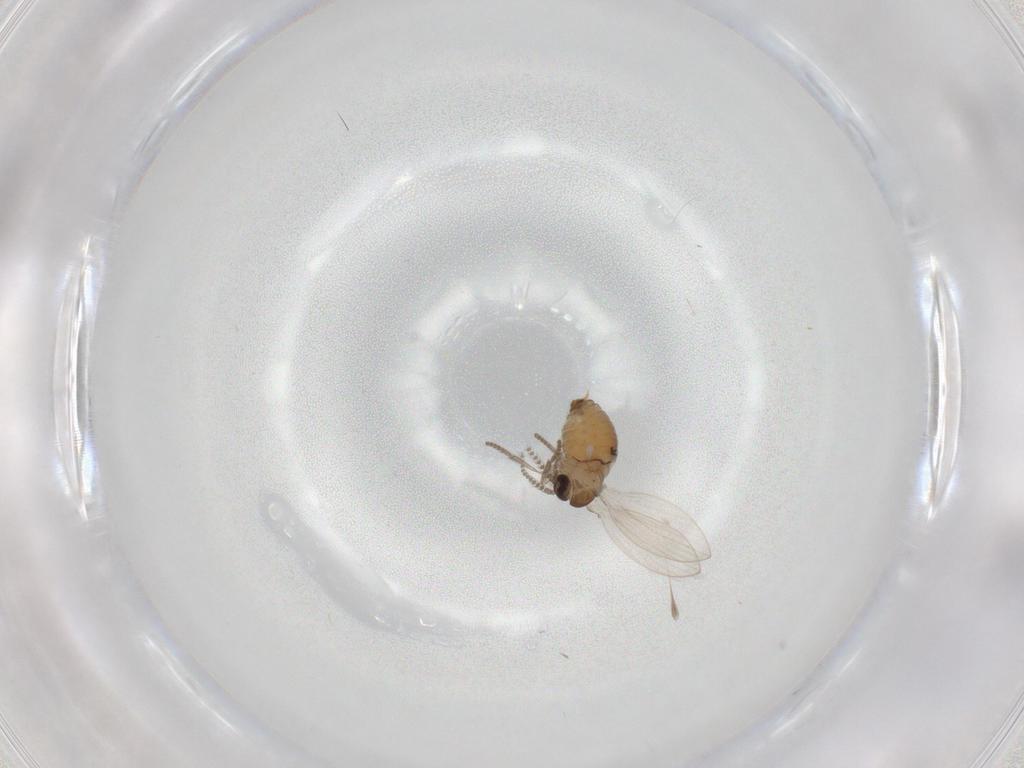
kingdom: Animalia
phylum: Arthropoda
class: Insecta
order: Diptera
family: Psychodidae
